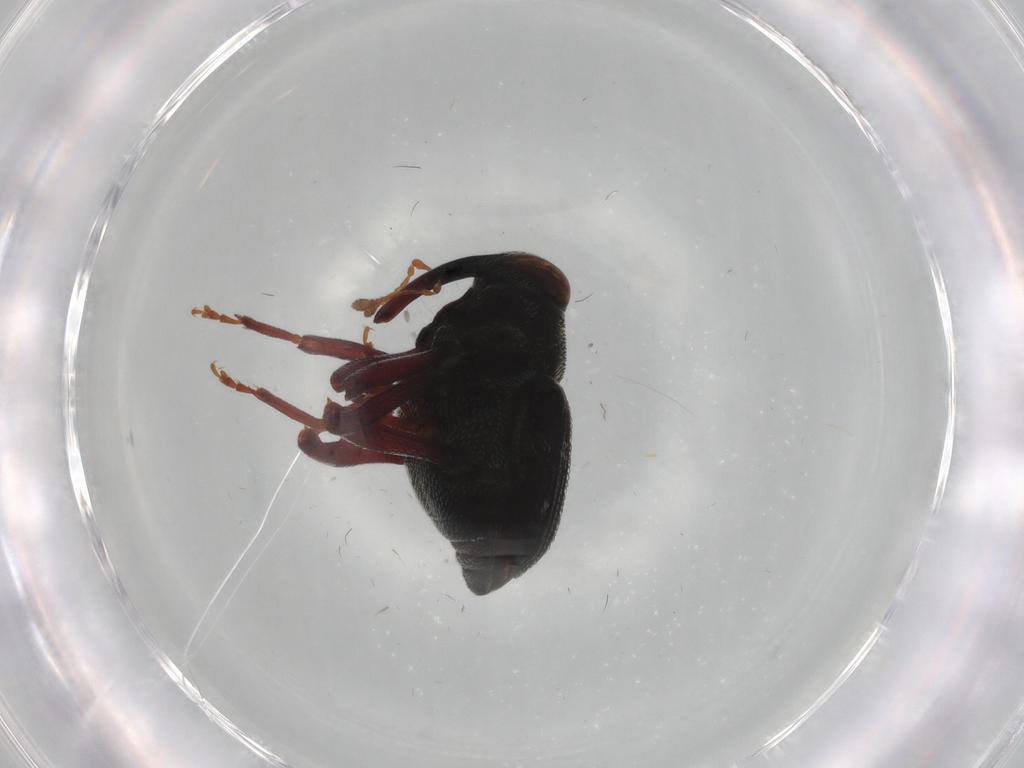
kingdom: Animalia
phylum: Arthropoda
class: Insecta
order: Coleoptera
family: Curculionidae
